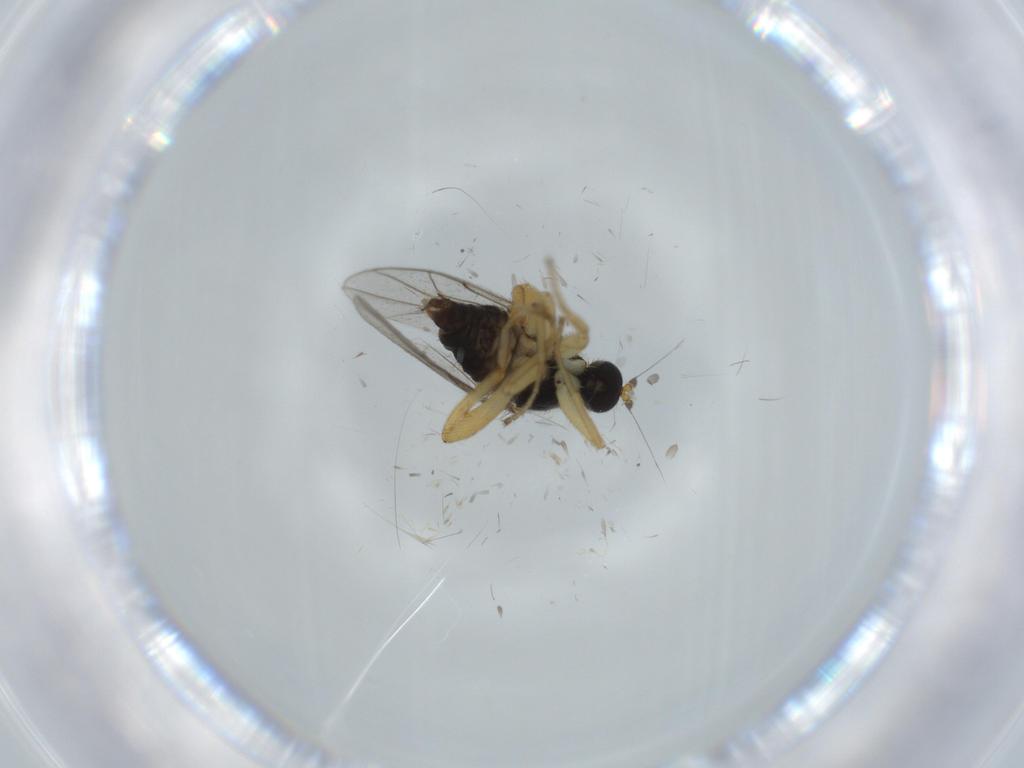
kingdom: Animalia
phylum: Arthropoda
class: Insecta
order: Diptera
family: Hybotidae
